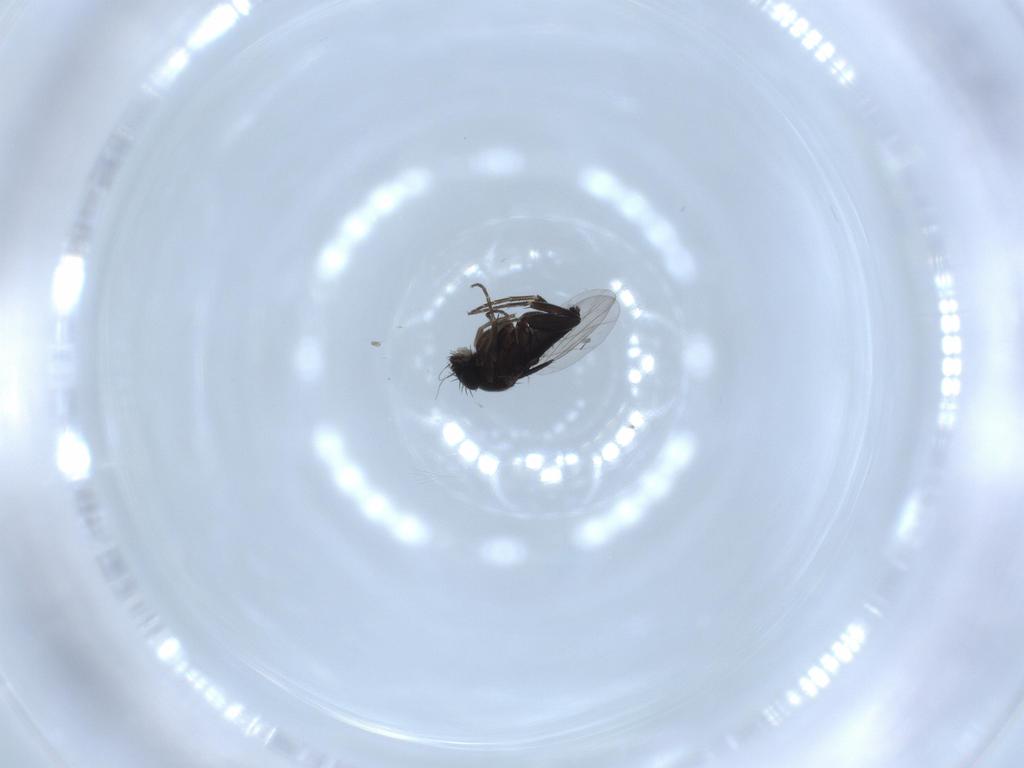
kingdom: Animalia
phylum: Arthropoda
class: Insecta
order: Diptera
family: Phoridae
